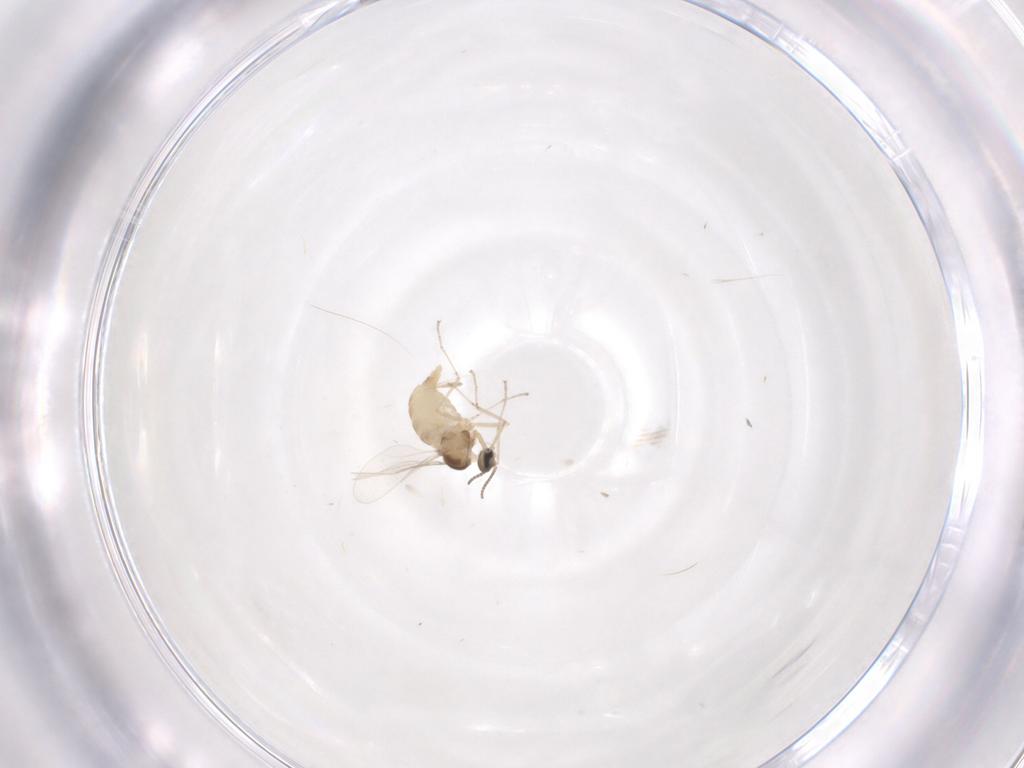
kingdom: Animalia
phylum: Arthropoda
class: Insecta
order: Diptera
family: Cecidomyiidae
